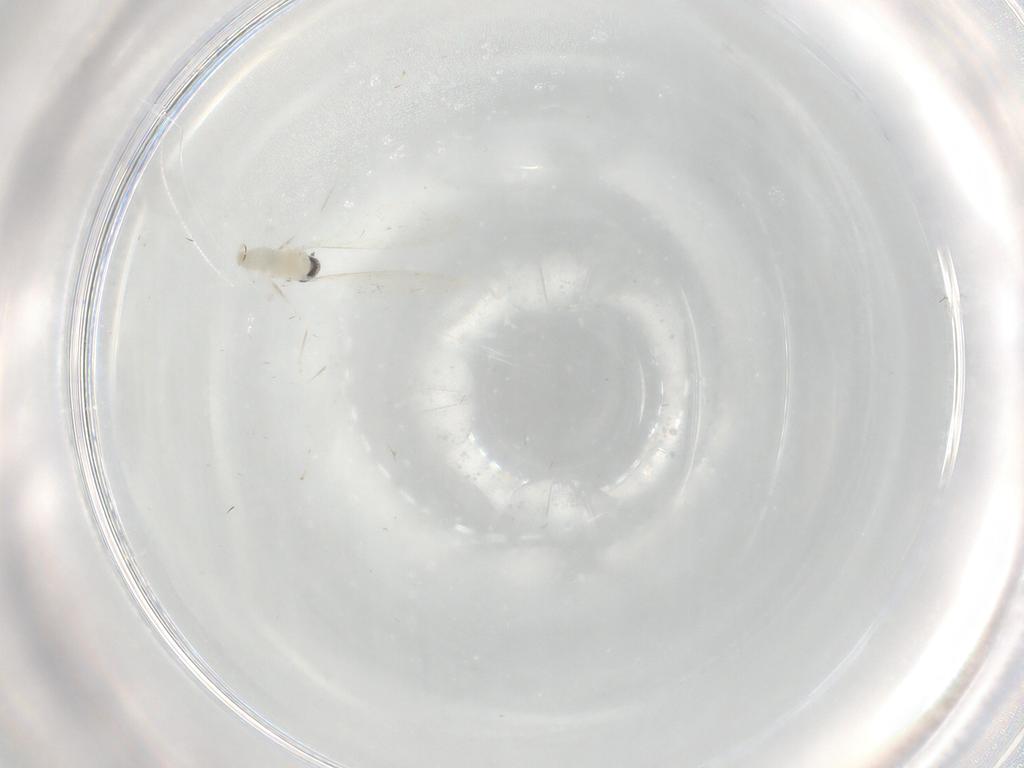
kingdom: Animalia
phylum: Arthropoda
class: Insecta
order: Diptera
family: Cecidomyiidae
